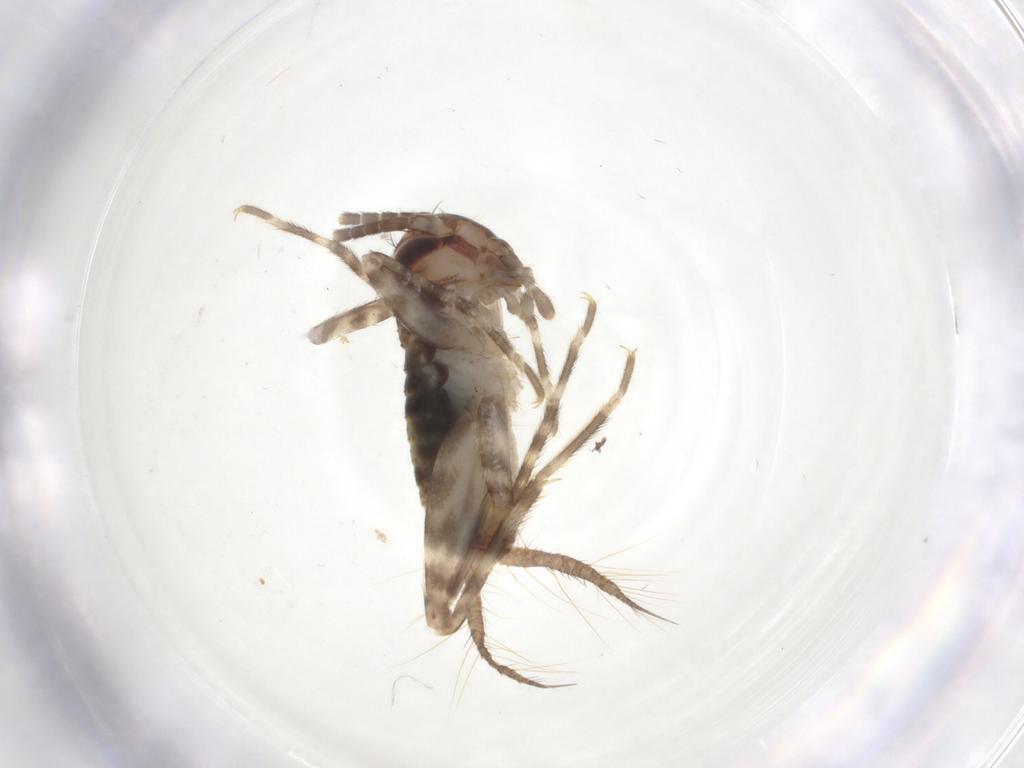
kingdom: Animalia
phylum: Arthropoda
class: Insecta
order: Orthoptera
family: Gryllidae
